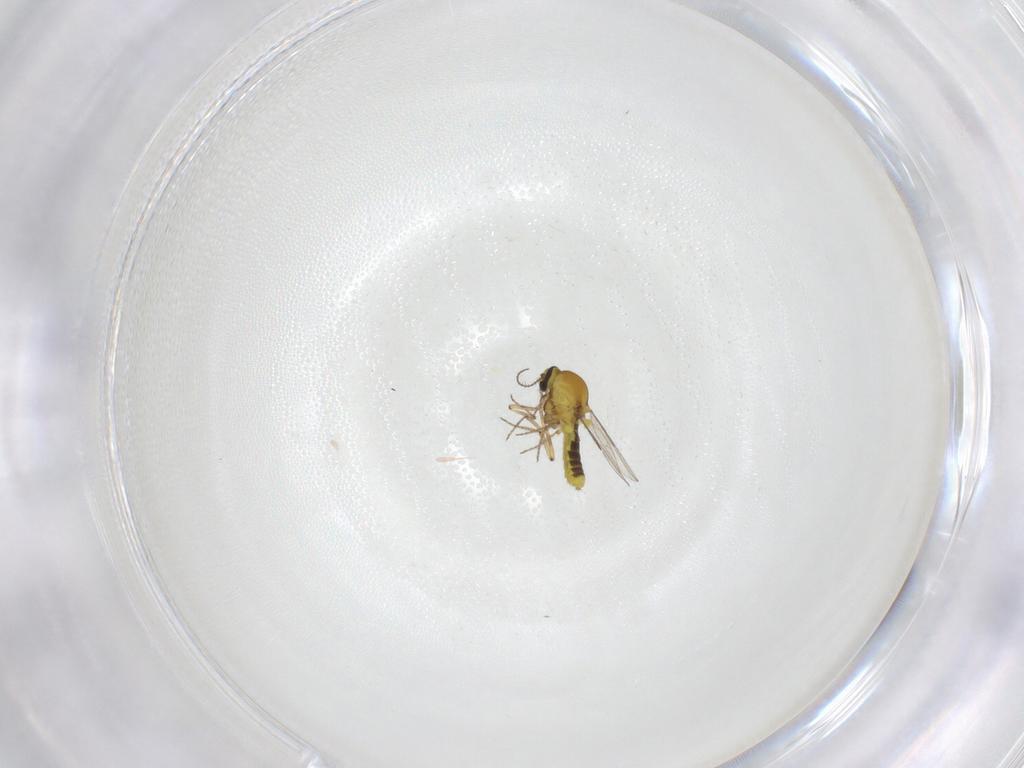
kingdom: Animalia
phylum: Arthropoda
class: Insecta
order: Diptera
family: Ceratopogonidae
